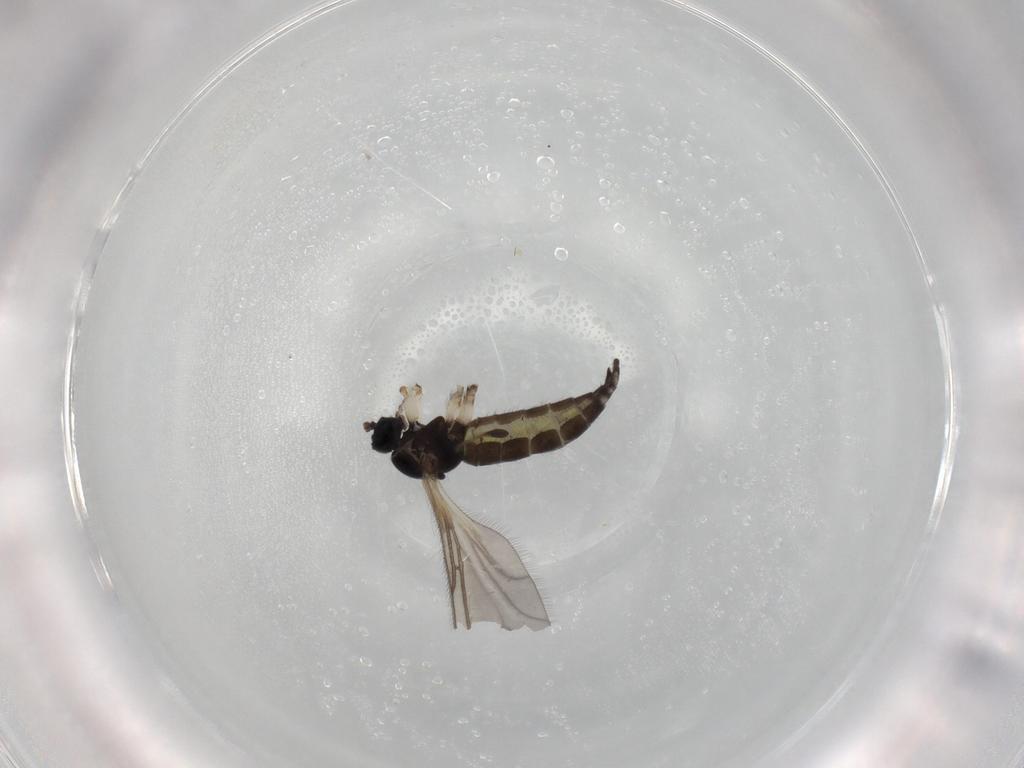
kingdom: Animalia
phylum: Arthropoda
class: Insecta
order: Diptera
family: Sciaridae
